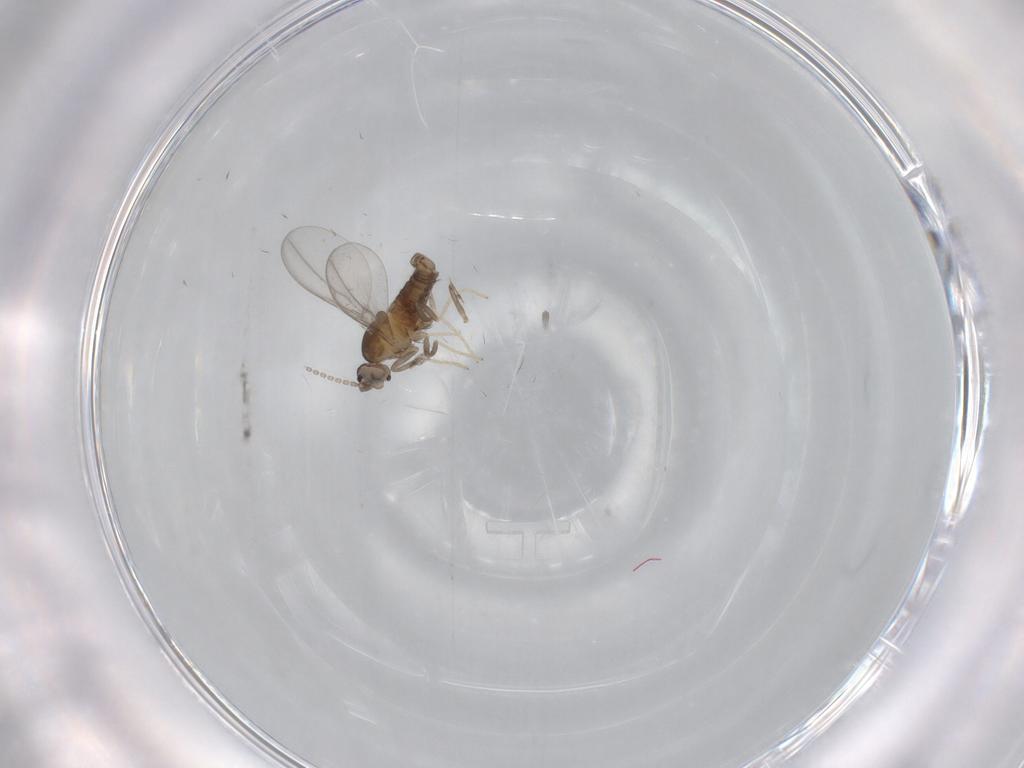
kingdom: Animalia
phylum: Arthropoda
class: Insecta
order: Diptera
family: Cecidomyiidae
